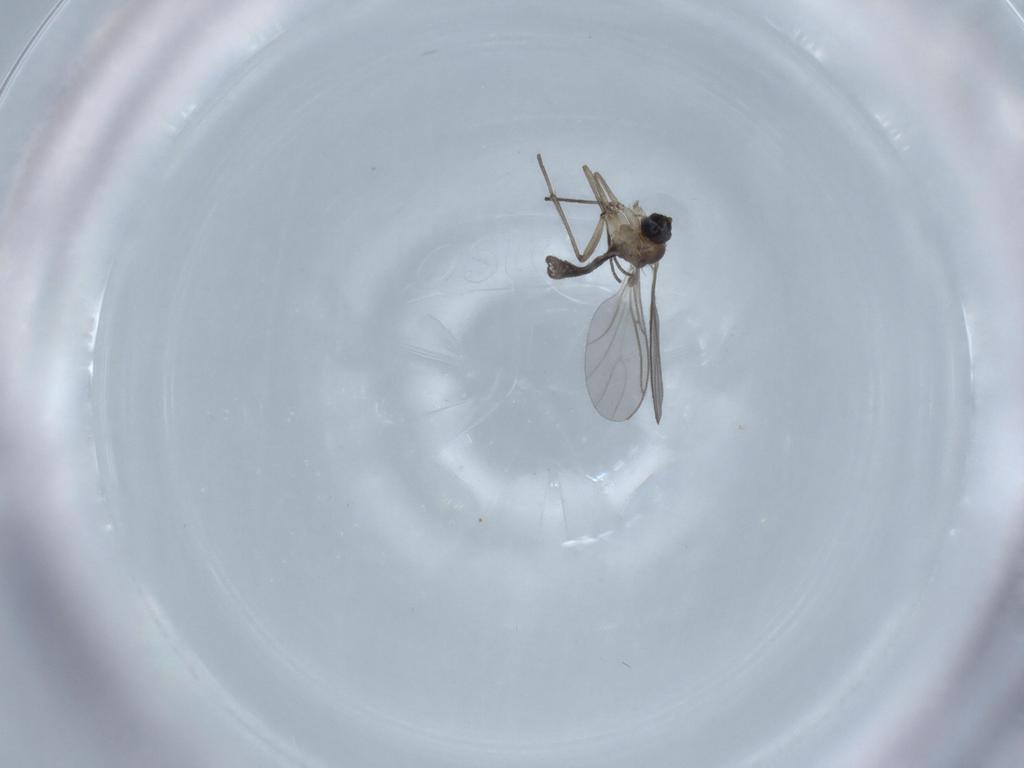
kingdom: Animalia
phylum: Arthropoda
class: Insecta
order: Diptera
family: Sciaridae
